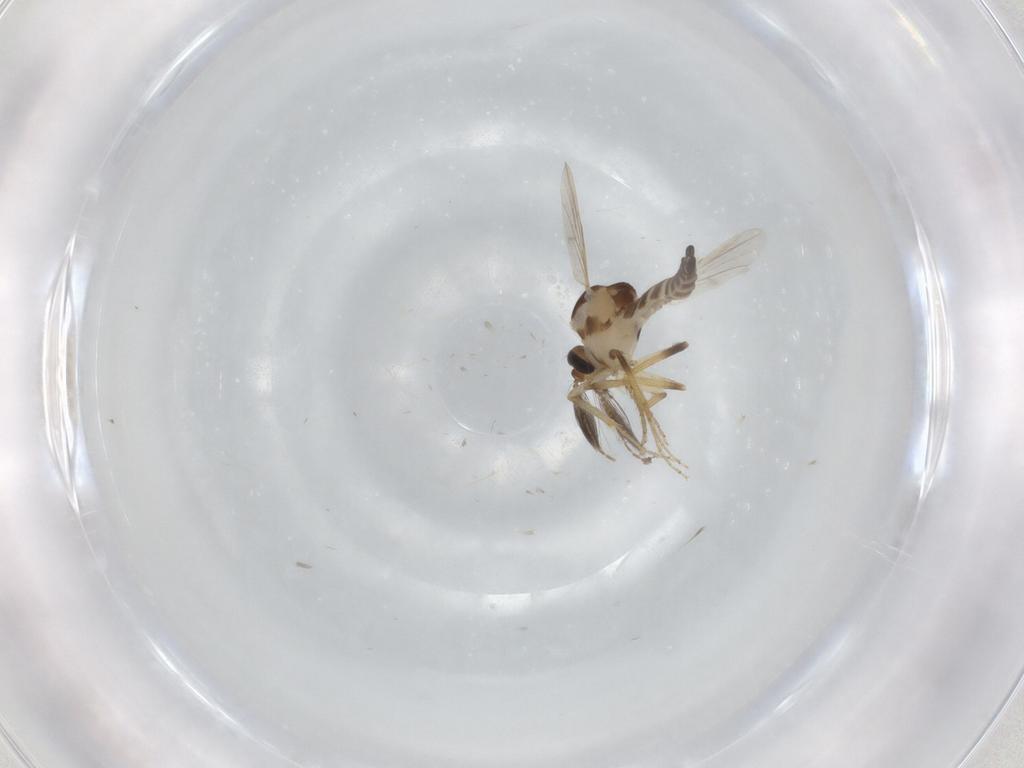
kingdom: Animalia
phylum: Arthropoda
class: Insecta
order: Diptera
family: Ceratopogonidae
